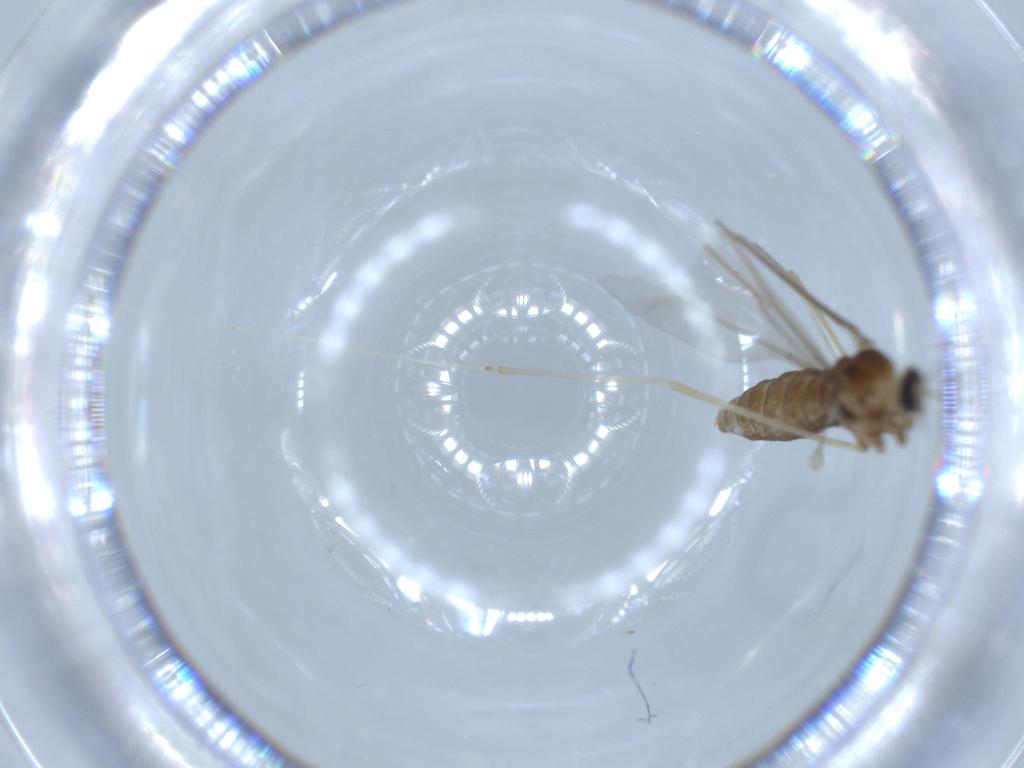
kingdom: Animalia
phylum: Arthropoda
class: Insecta
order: Diptera
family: Cecidomyiidae
